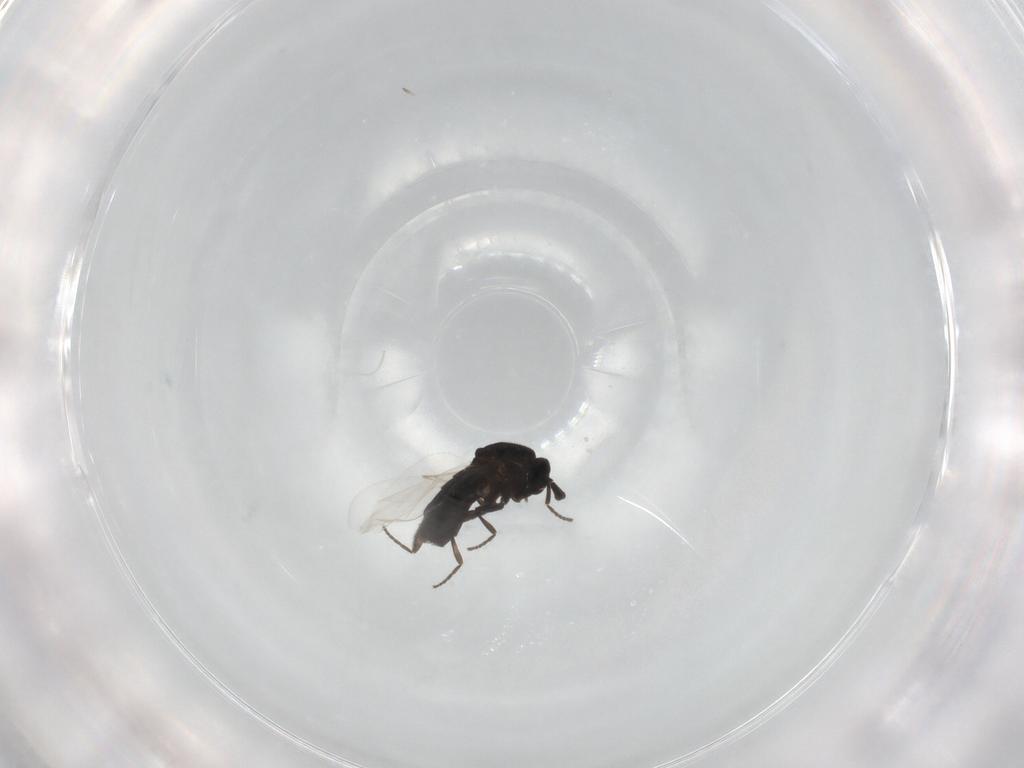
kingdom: Animalia
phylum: Arthropoda
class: Insecta
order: Diptera
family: Scatopsidae
